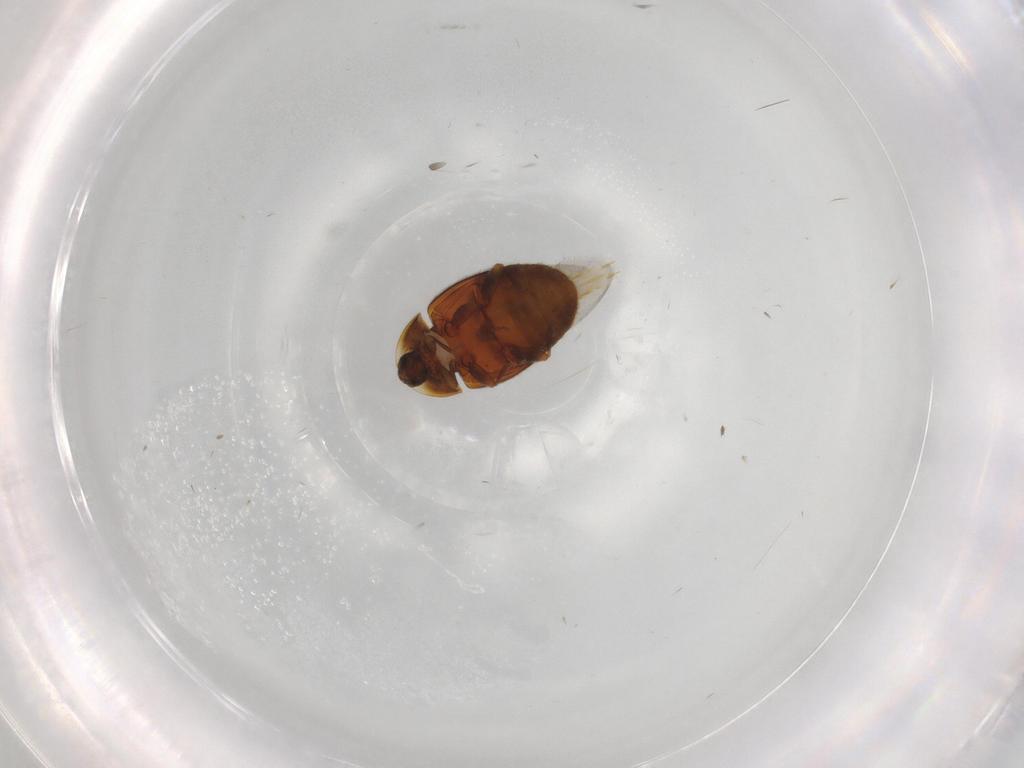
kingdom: Animalia
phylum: Arthropoda
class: Insecta
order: Coleoptera
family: Corylophidae
